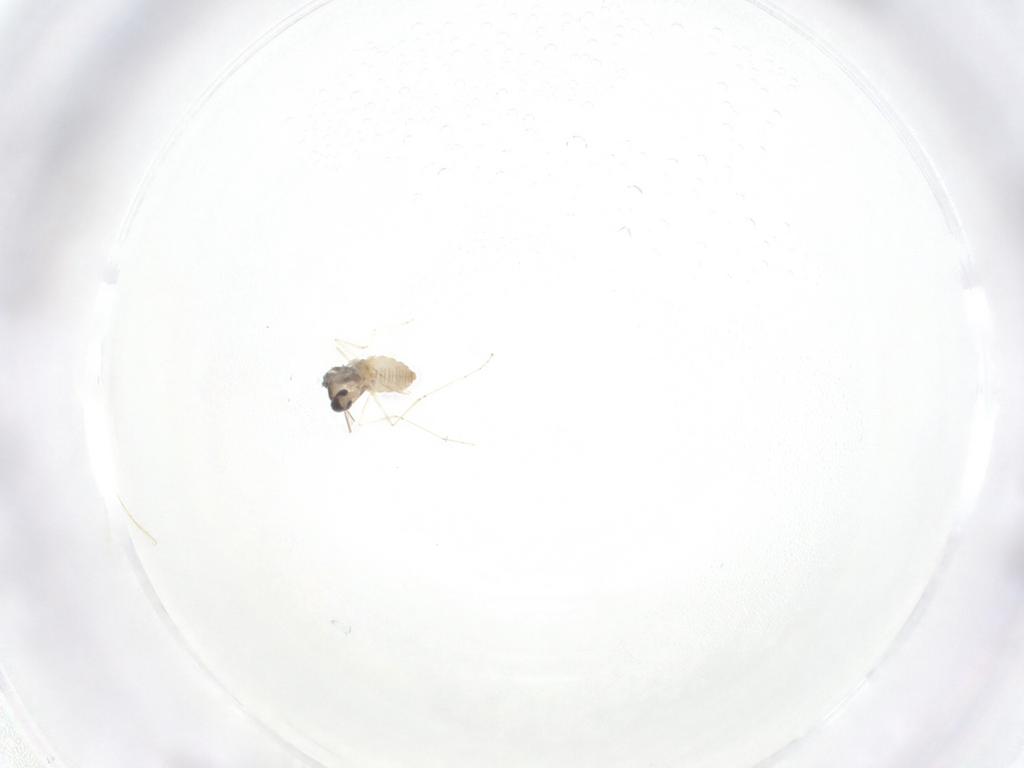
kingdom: Animalia
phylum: Arthropoda
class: Insecta
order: Diptera
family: Cecidomyiidae
